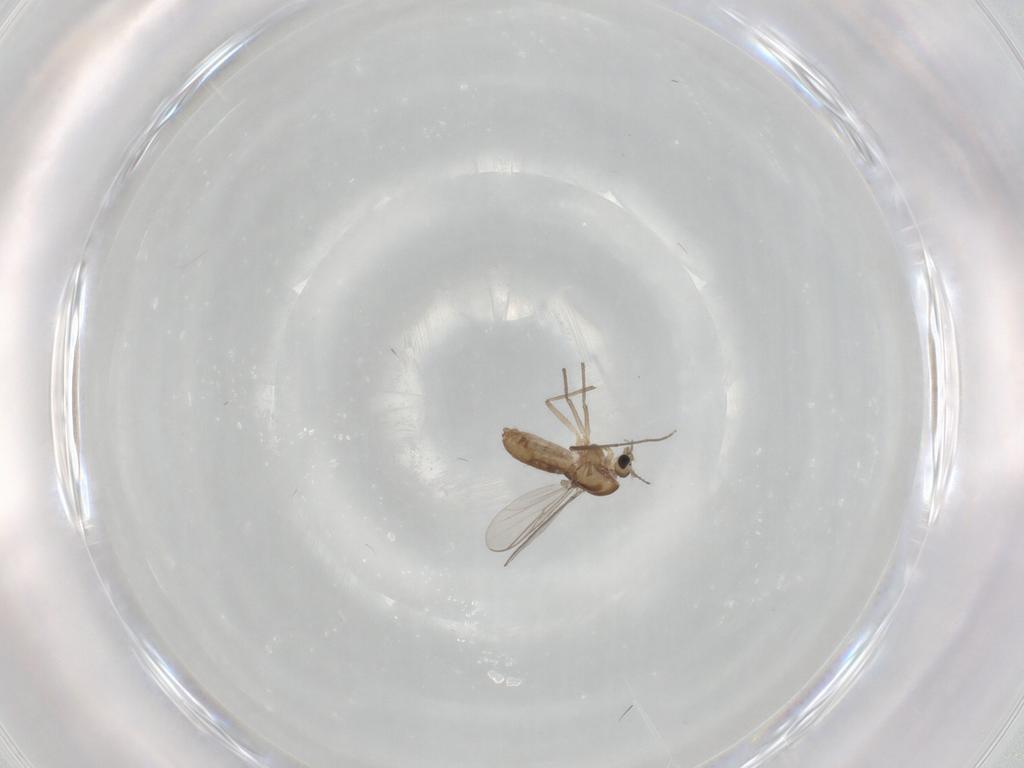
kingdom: Animalia
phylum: Arthropoda
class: Insecta
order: Diptera
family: Chironomidae
